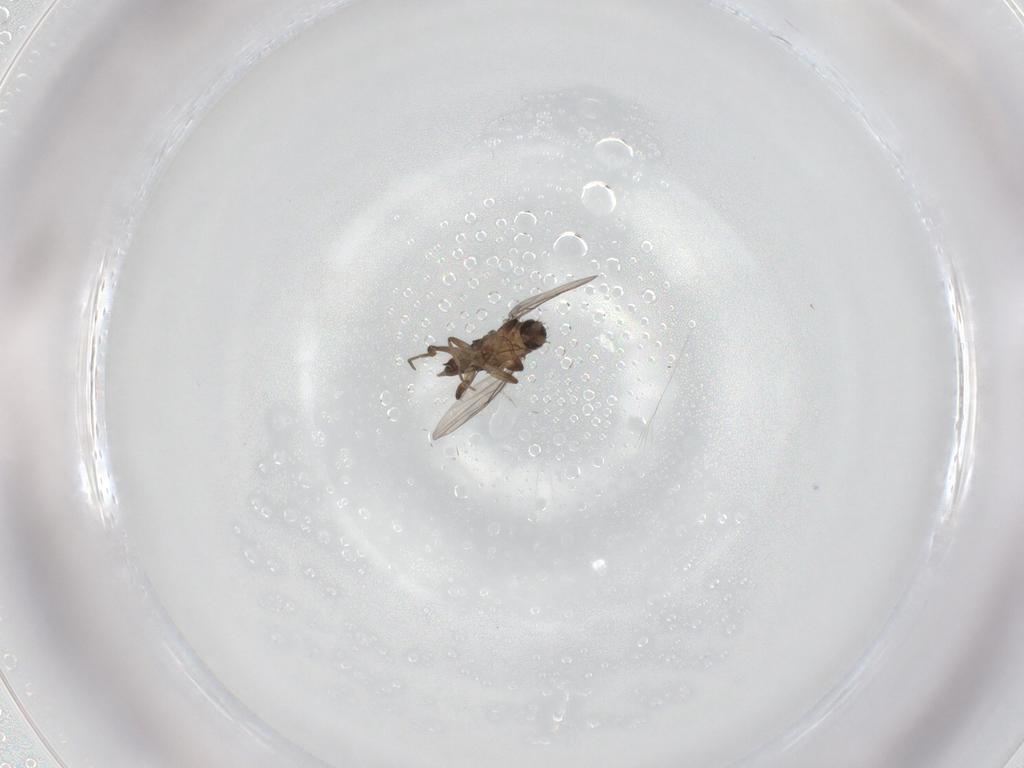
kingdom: Animalia
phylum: Arthropoda
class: Insecta
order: Diptera
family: Phoridae
